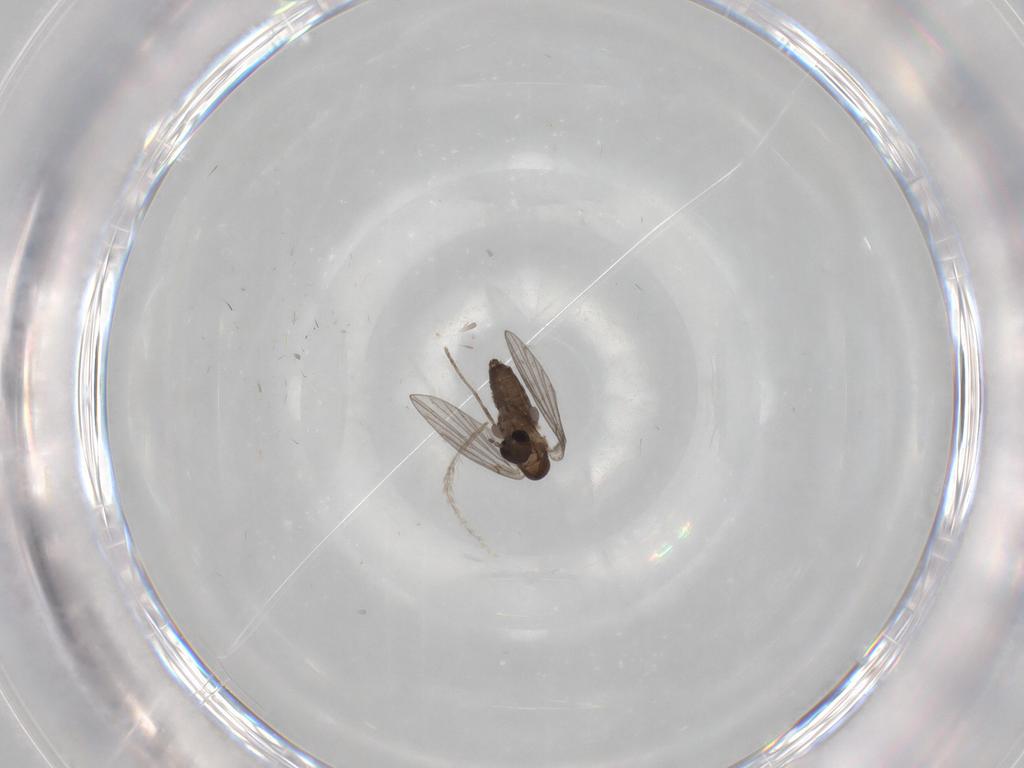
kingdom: Animalia
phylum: Arthropoda
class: Insecta
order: Diptera
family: Psychodidae
